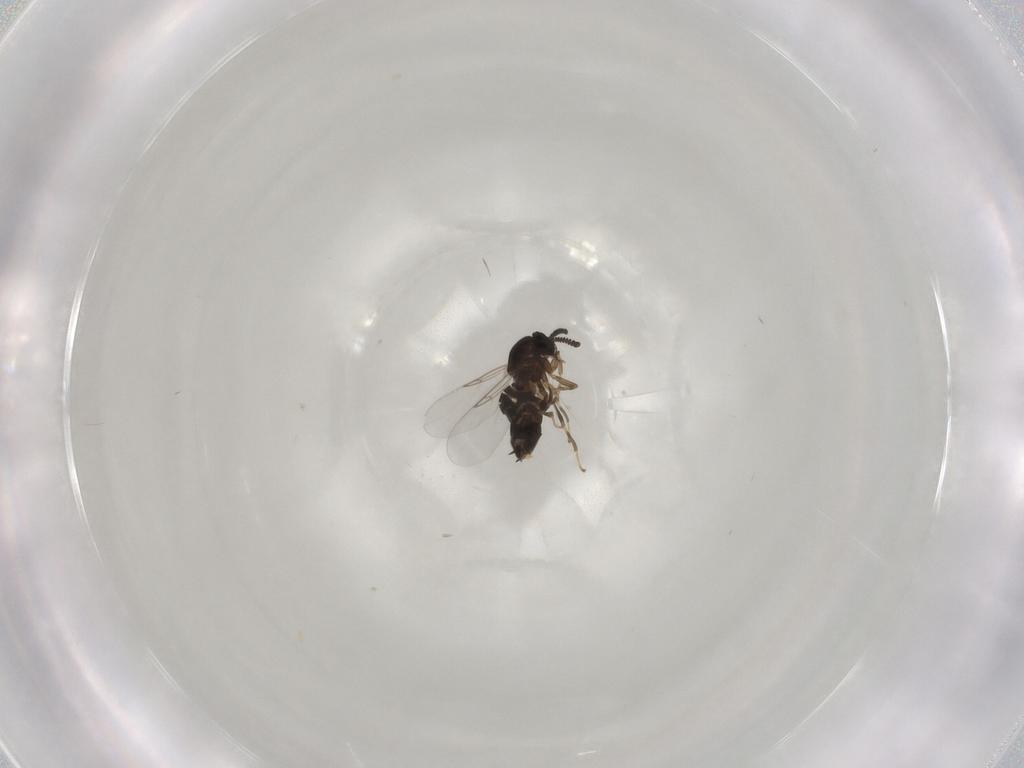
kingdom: Animalia
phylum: Arthropoda
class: Insecta
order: Diptera
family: Scatopsidae
